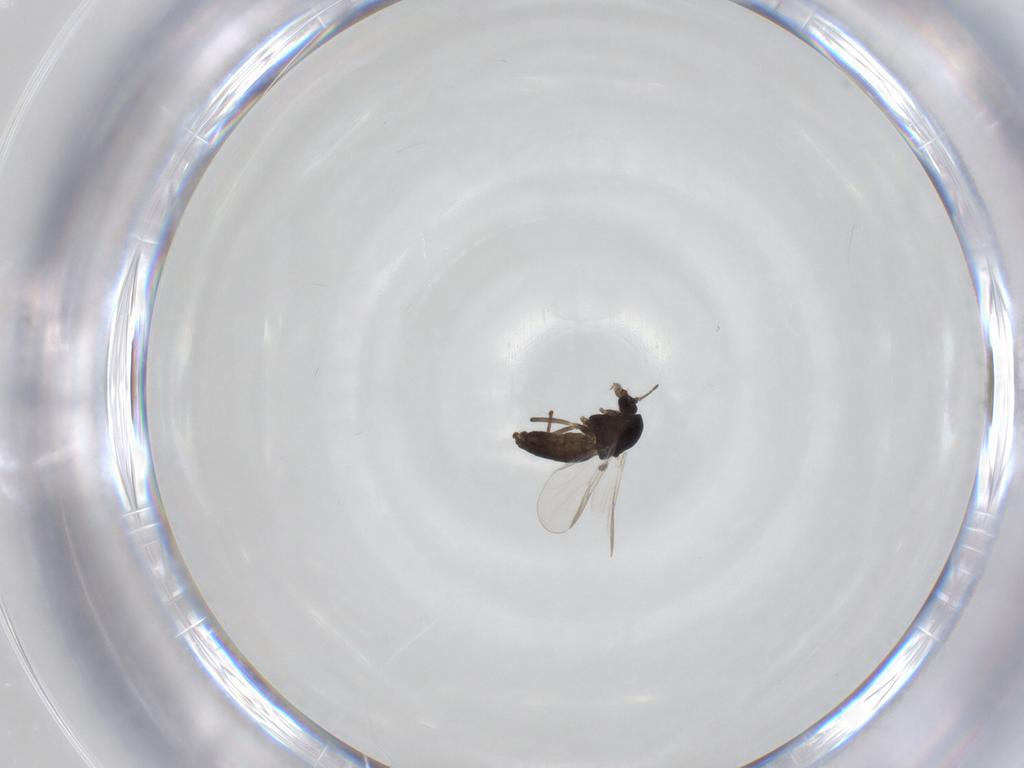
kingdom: Animalia
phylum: Arthropoda
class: Insecta
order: Diptera
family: Chironomidae
